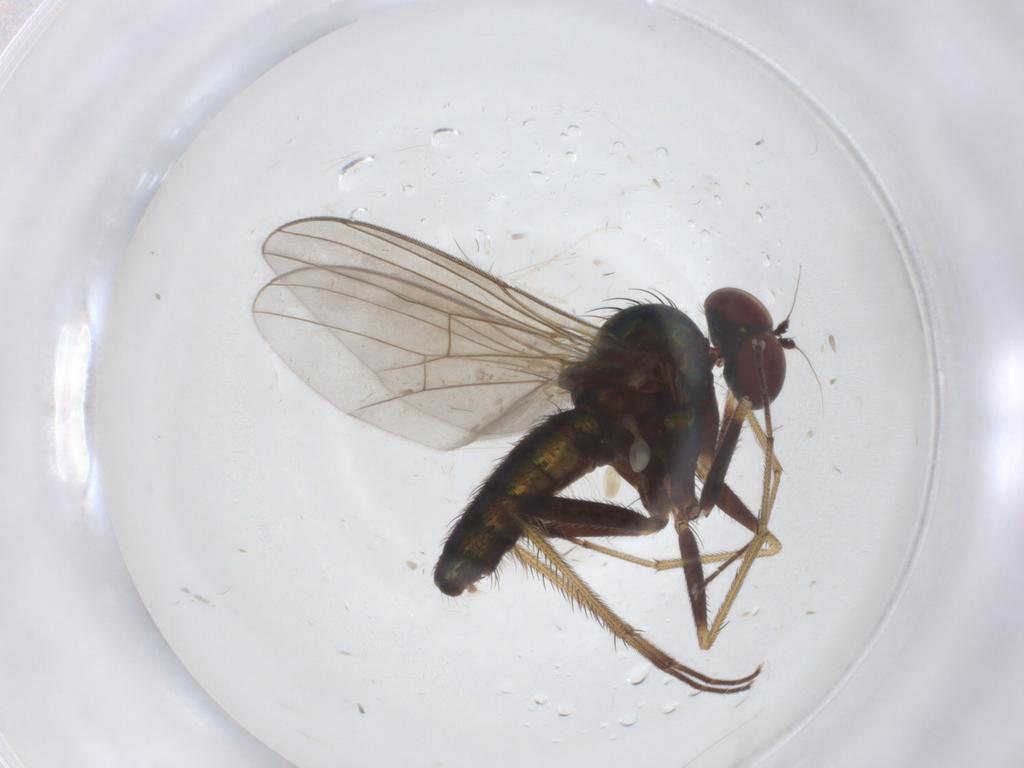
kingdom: Animalia
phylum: Arthropoda
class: Insecta
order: Diptera
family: Dolichopodidae
